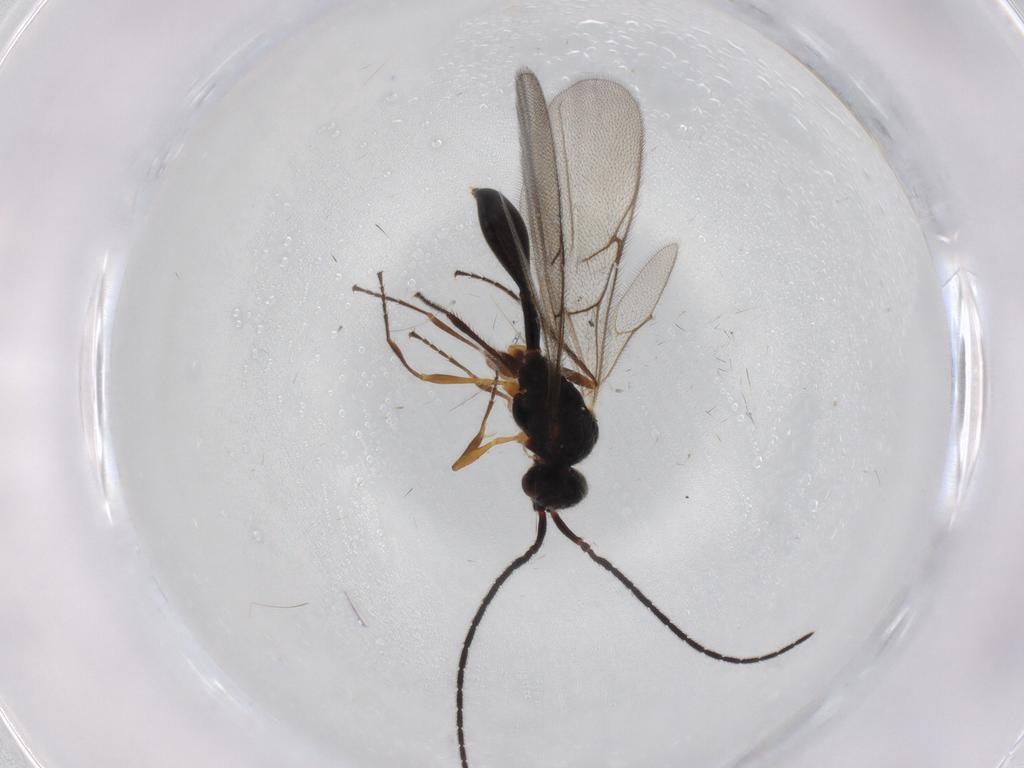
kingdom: Animalia
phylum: Arthropoda
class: Insecta
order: Hymenoptera
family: Diapriidae
